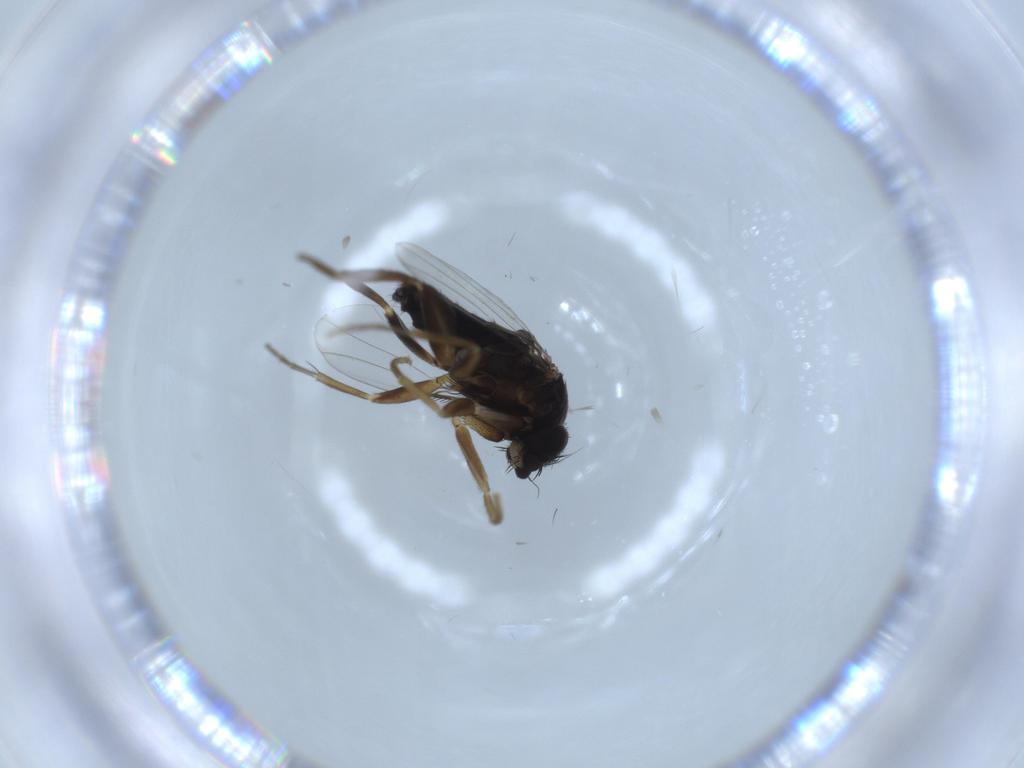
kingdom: Animalia
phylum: Arthropoda
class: Insecta
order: Diptera
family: Phoridae
